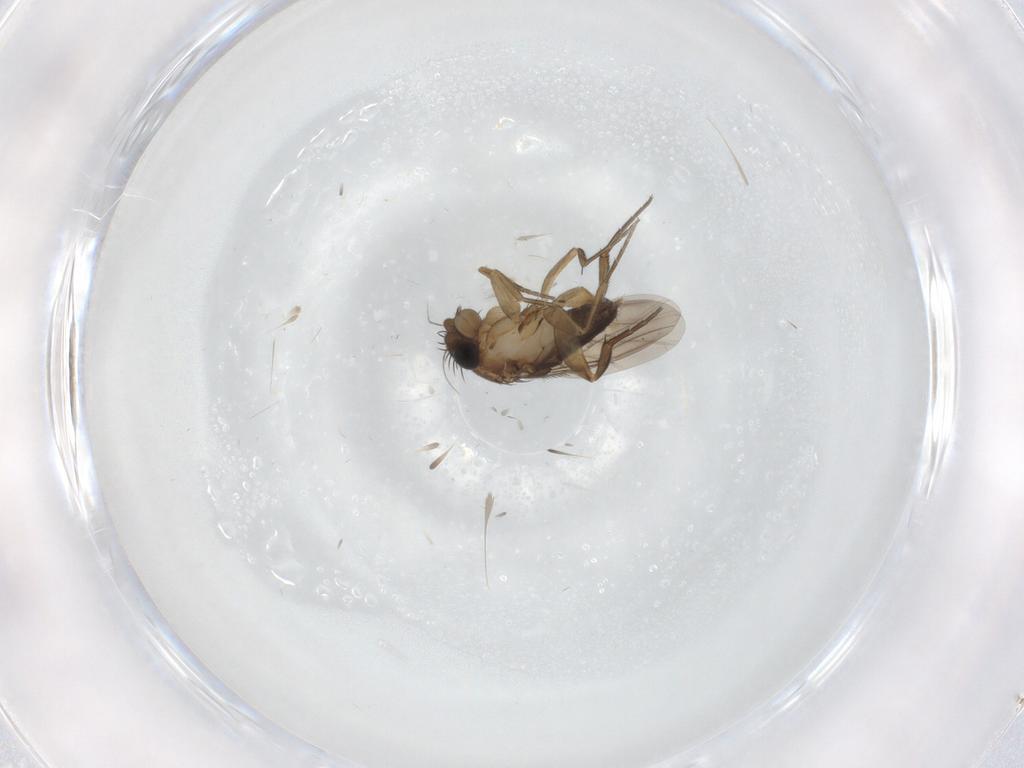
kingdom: Animalia
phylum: Arthropoda
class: Insecta
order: Diptera
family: Phoridae
